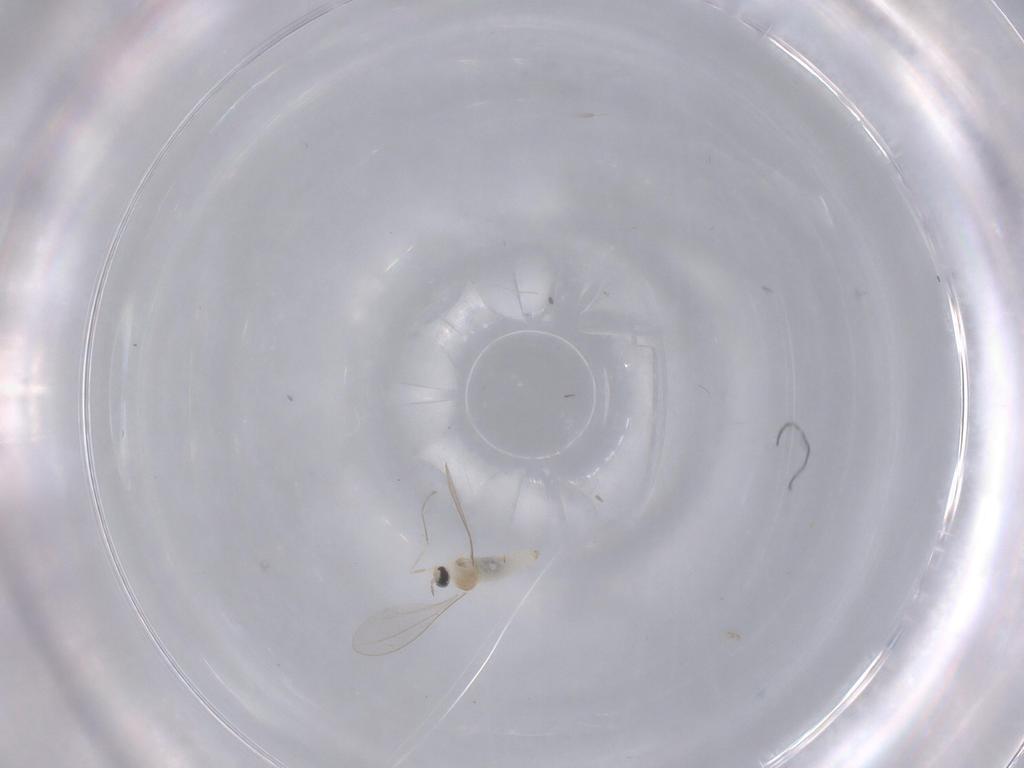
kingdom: Animalia
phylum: Arthropoda
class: Insecta
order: Diptera
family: Cecidomyiidae
